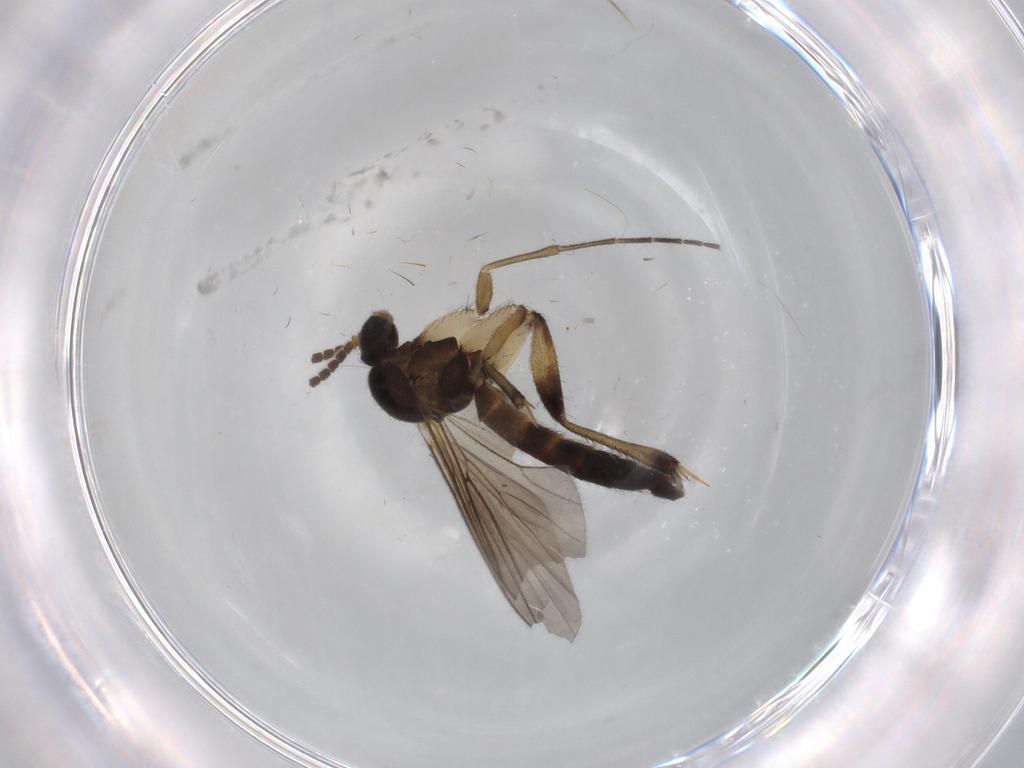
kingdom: Animalia
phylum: Arthropoda
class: Insecta
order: Diptera
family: Mycetophilidae
